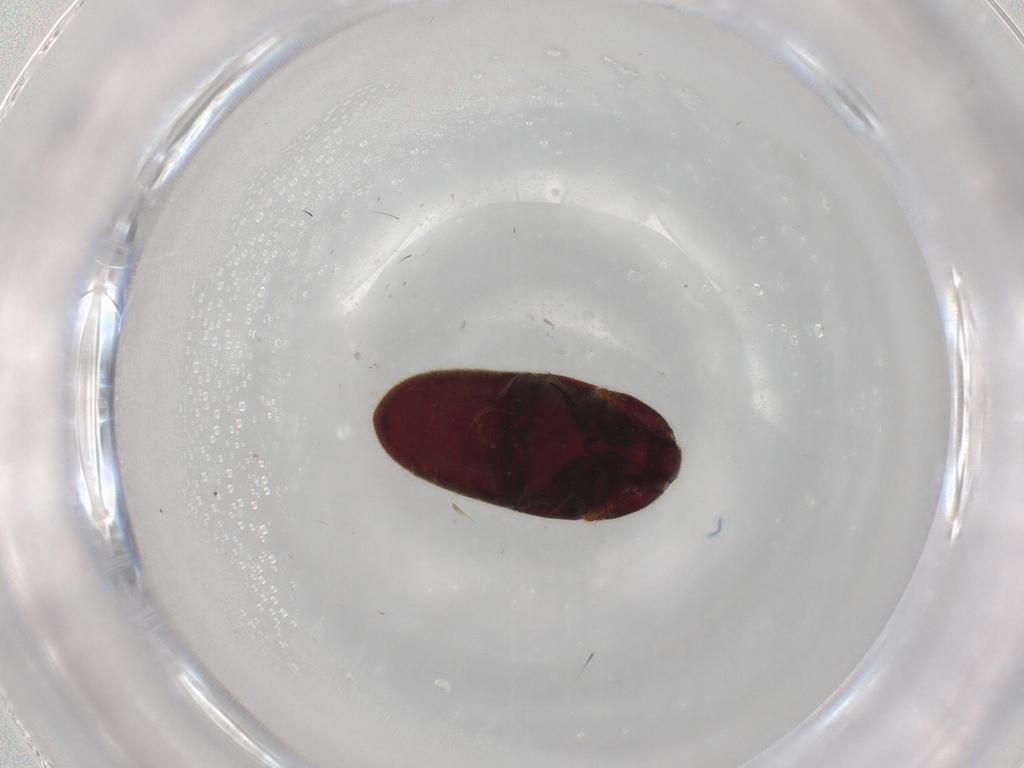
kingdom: Animalia
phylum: Arthropoda
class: Insecta
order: Coleoptera
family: Throscidae
